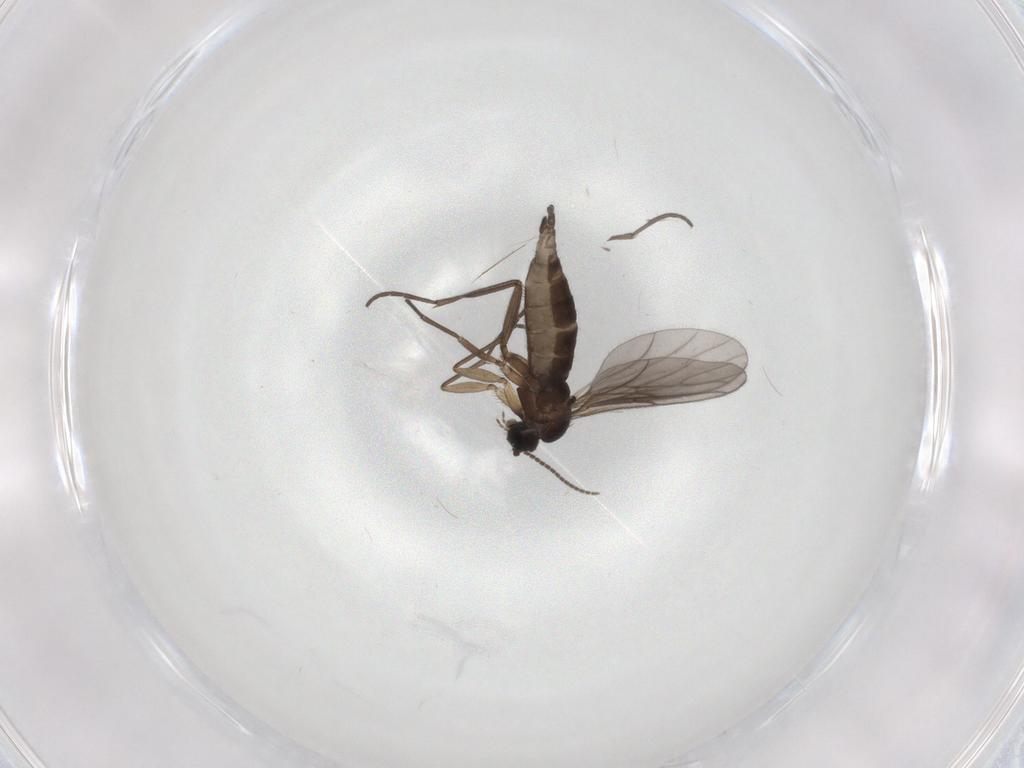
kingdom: Animalia
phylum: Arthropoda
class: Insecta
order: Diptera
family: Sciaridae
